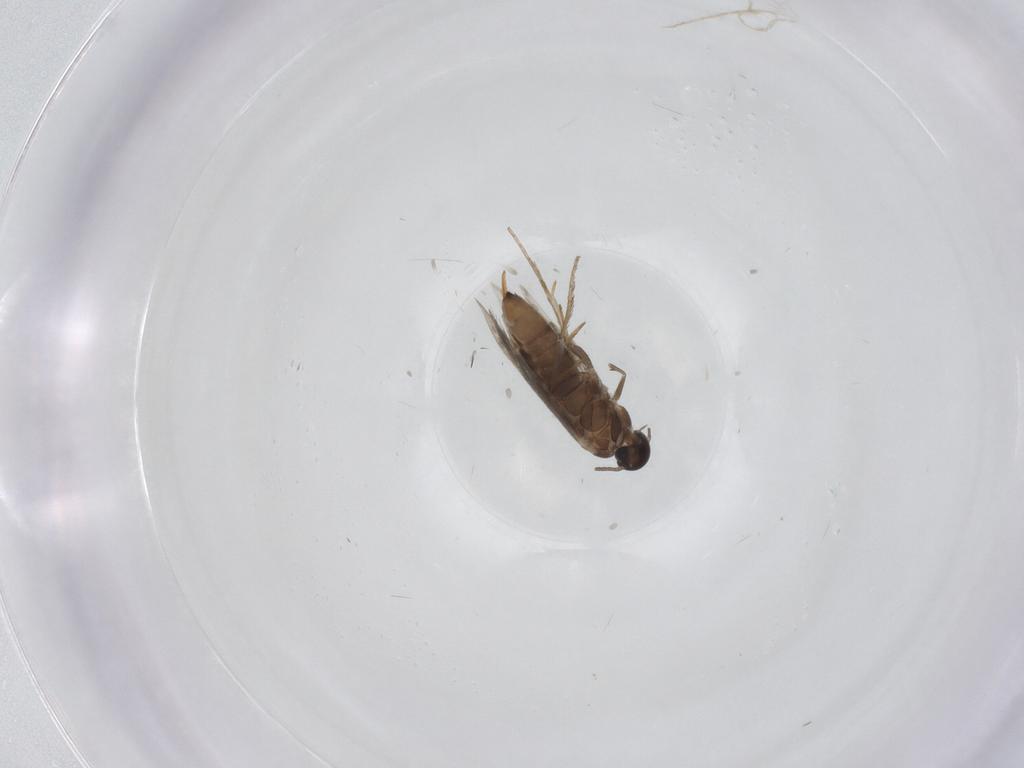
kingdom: Animalia
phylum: Arthropoda
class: Insecta
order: Lepidoptera
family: Heliozelidae
